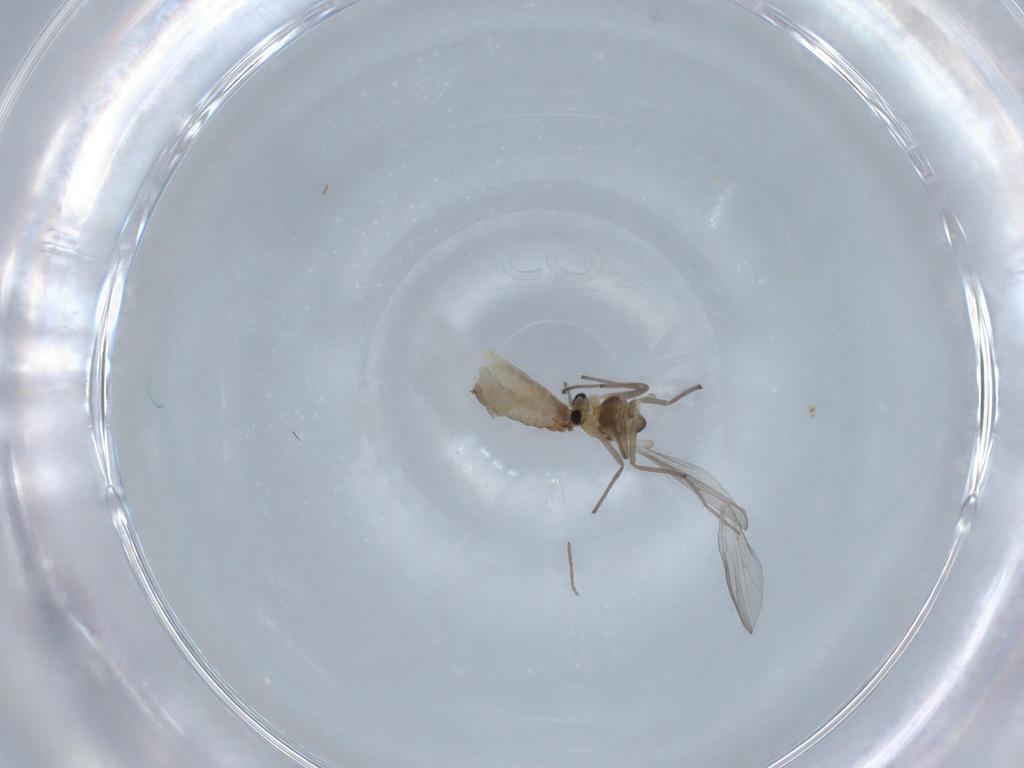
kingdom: Animalia
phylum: Arthropoda
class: Insecta
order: Diptera
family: Chironomidae
